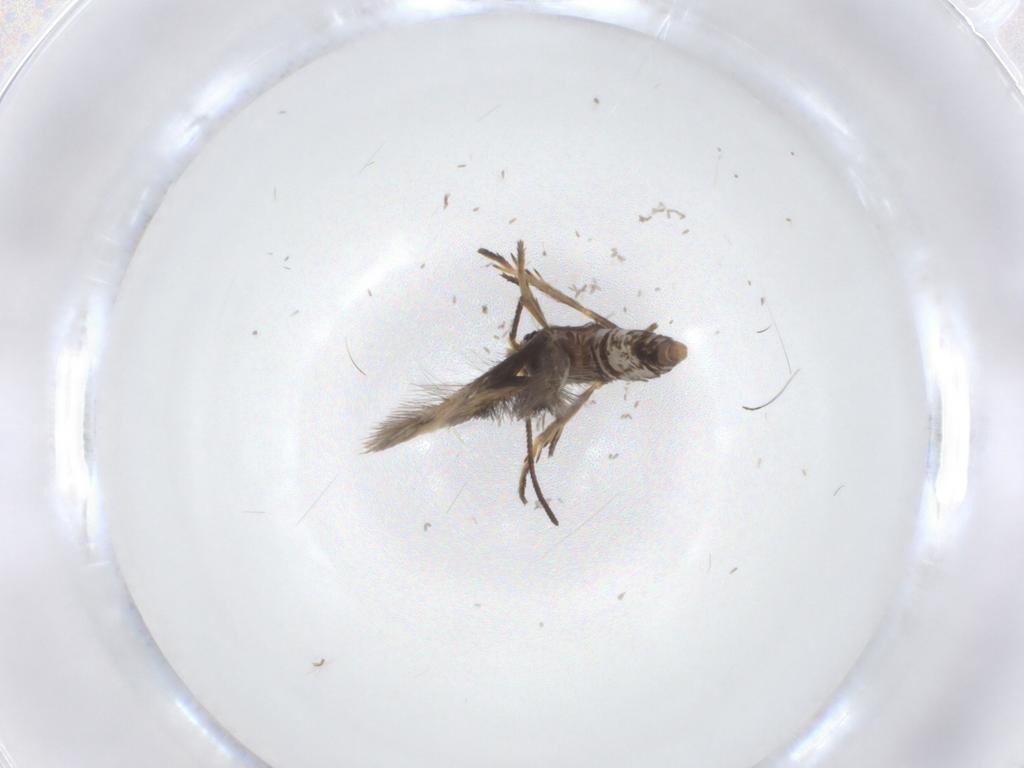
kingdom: Animalia
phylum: Arthropoda
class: Insecta
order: Lepidoptera
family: Nepticulidae
